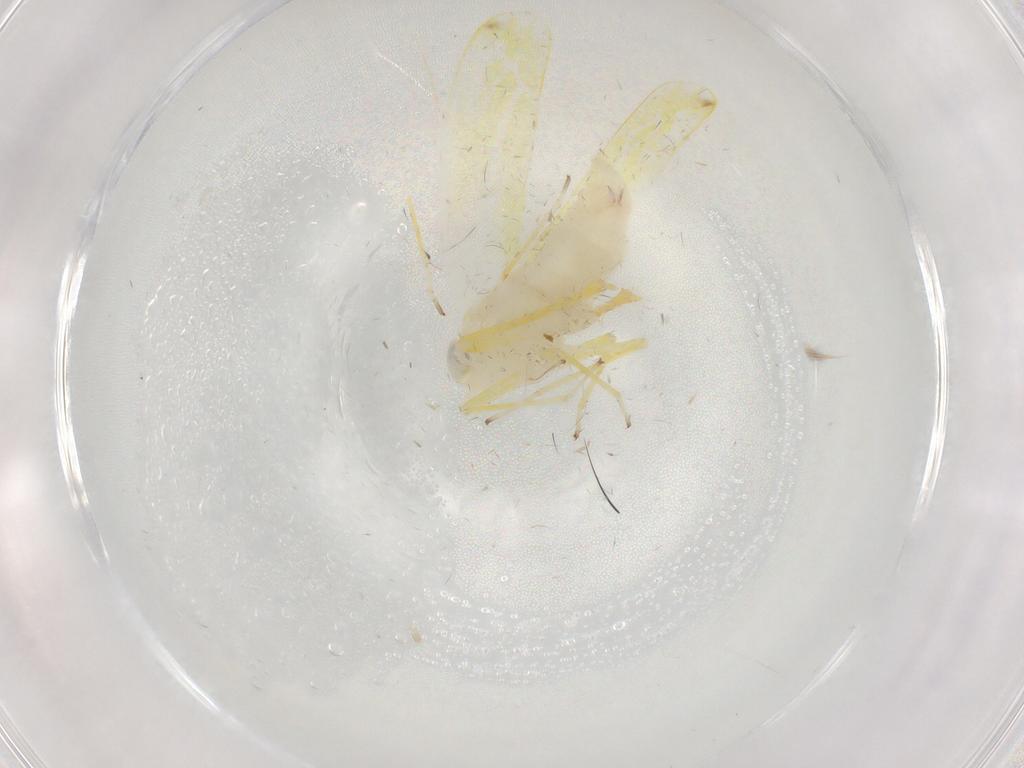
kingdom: Animalia
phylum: Arthropoda
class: Insecta
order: Hemiptera
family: Cicadellidae
